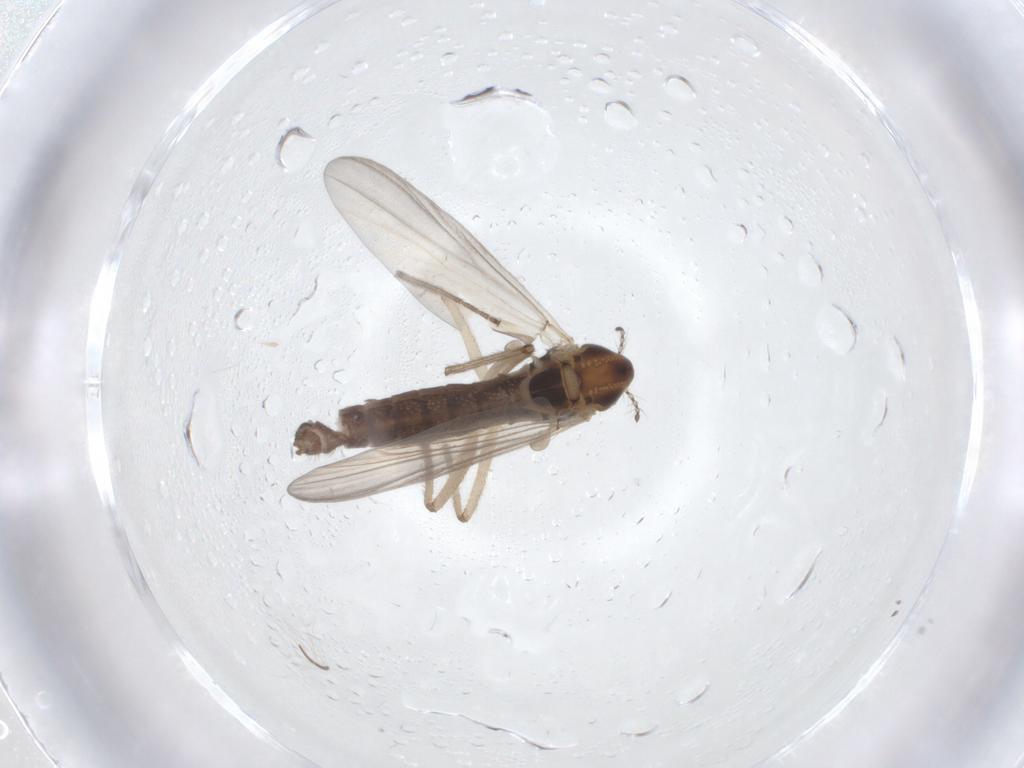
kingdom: Animalia
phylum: Arthropoda
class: Insecta
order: Diptera
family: Chironomidae
